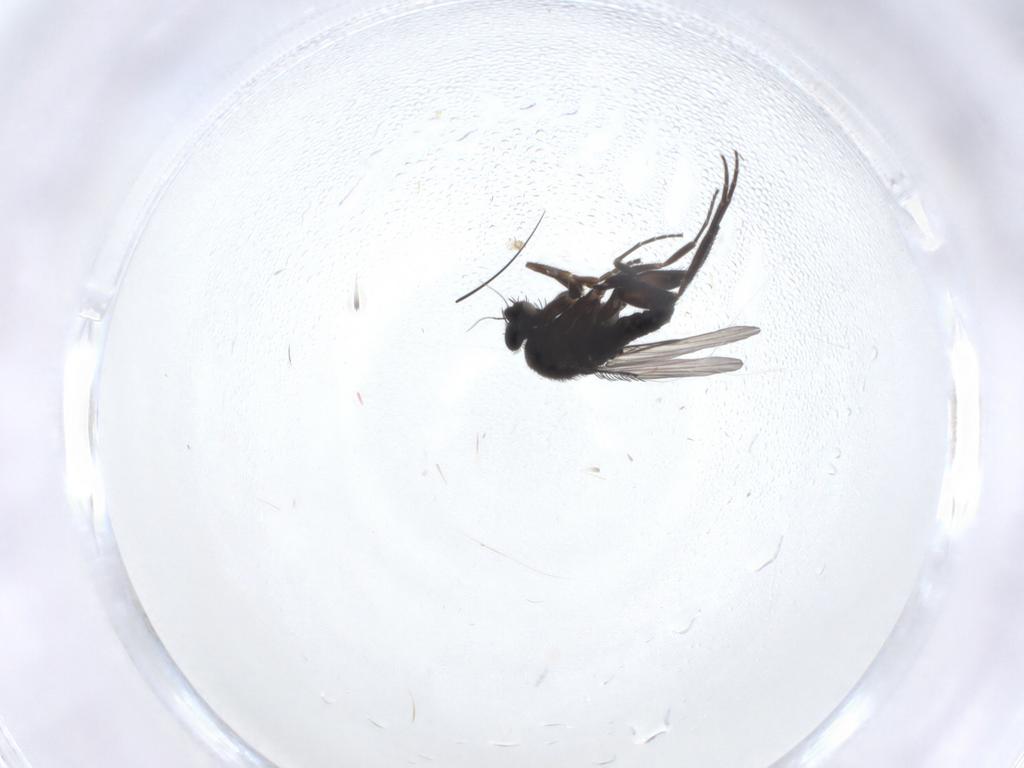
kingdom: Animalia
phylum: Arthropoda
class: Insecta
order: Diptera
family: Phoridae
